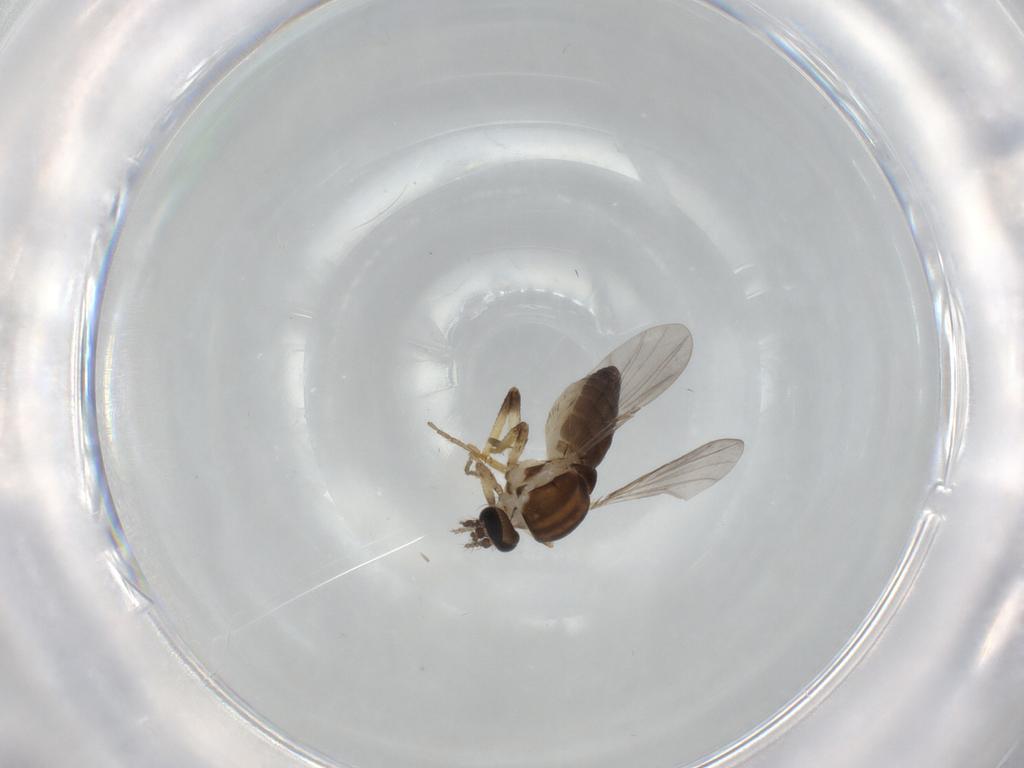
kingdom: Animalia
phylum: Arthropoda
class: Insecta
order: Diptera
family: Ceratopogonidae
